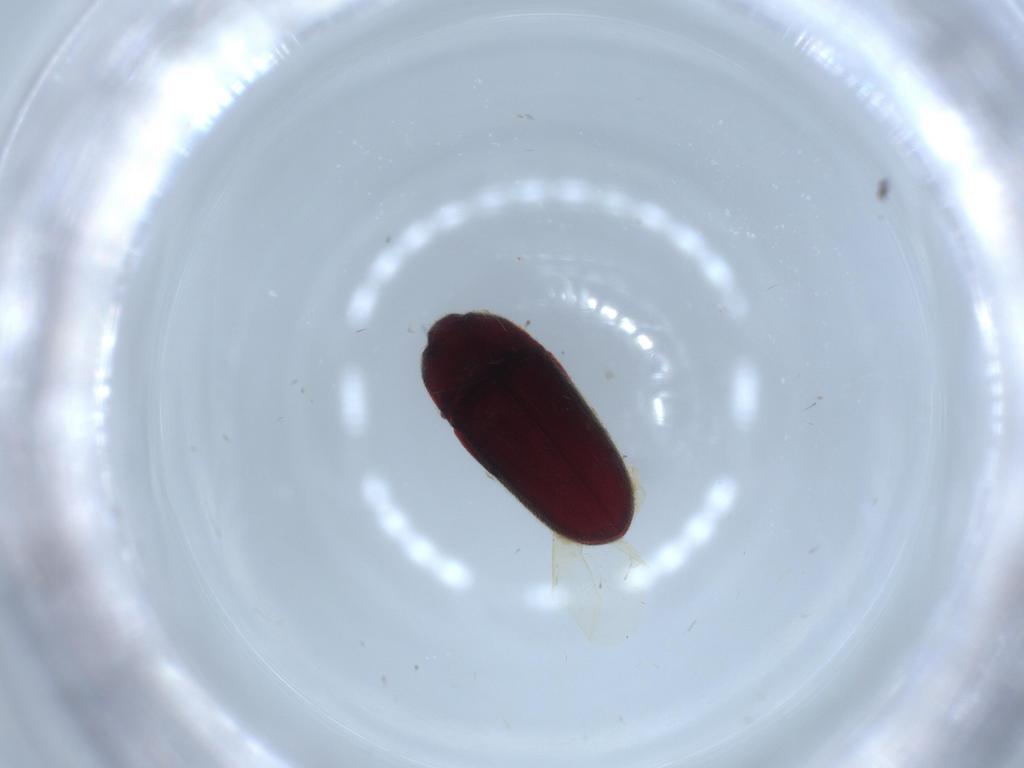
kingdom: Animalia
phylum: Arthropoda
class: Insecta
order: Coleoptera
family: Throscidae
